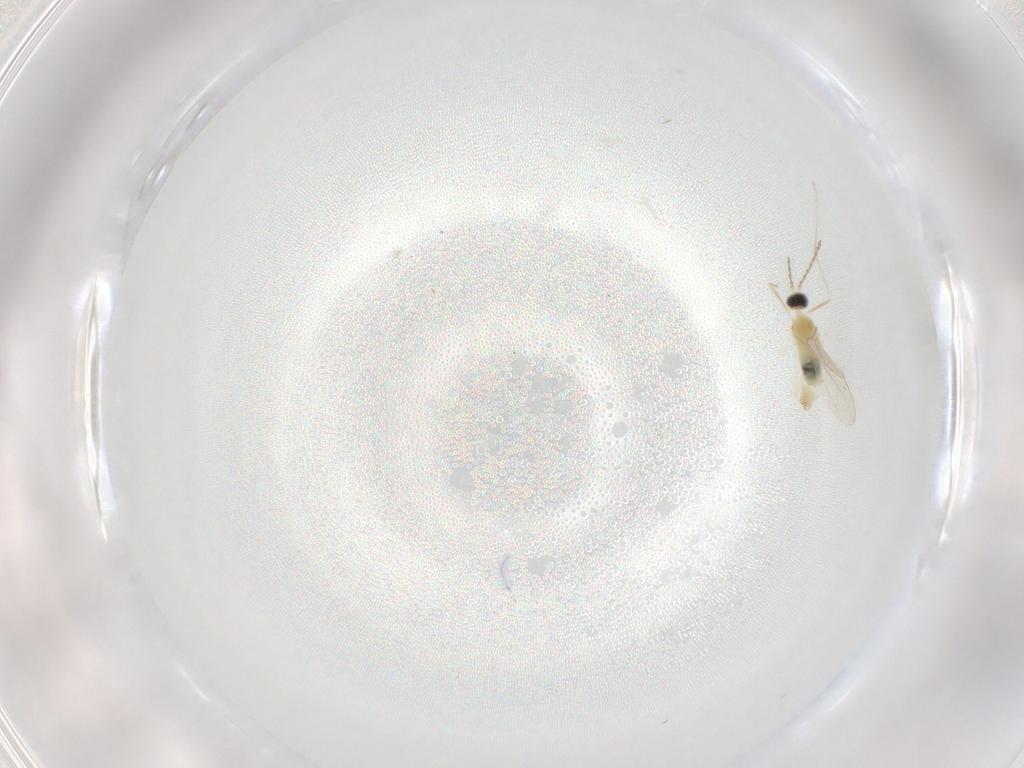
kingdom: Animalia
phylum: Arthropoda
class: Insecta
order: Diptera
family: Cecidomyiidae
